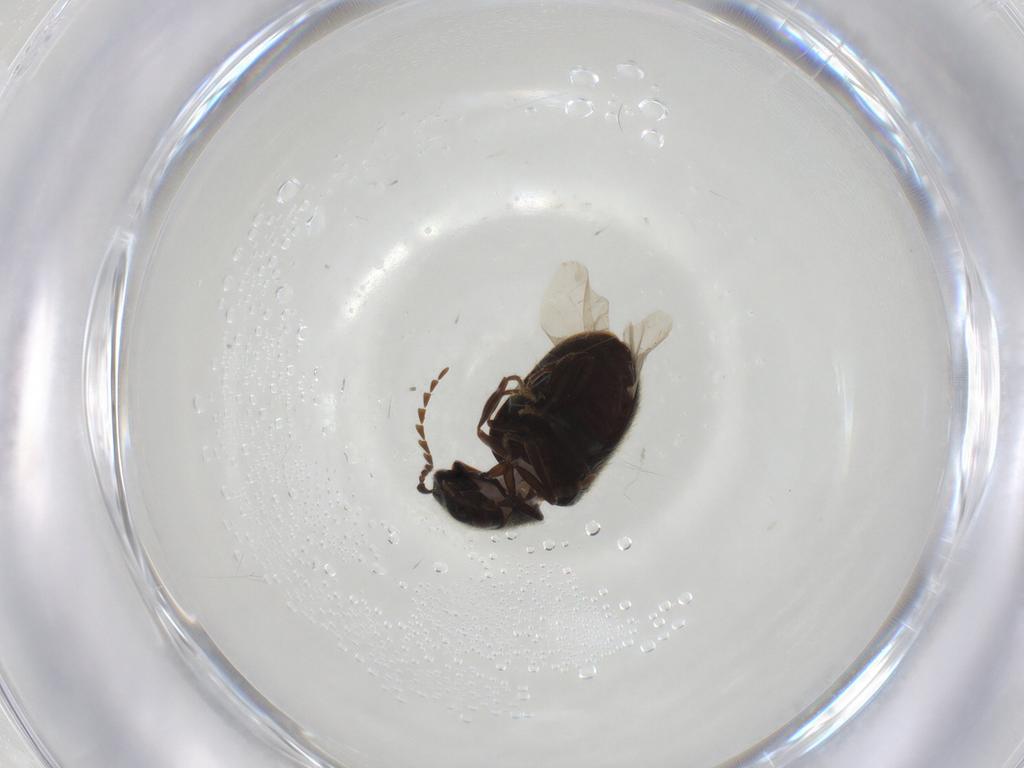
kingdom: Animalia
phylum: Arthropoda
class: Insecta
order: Coleoptera
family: Ptinidae
